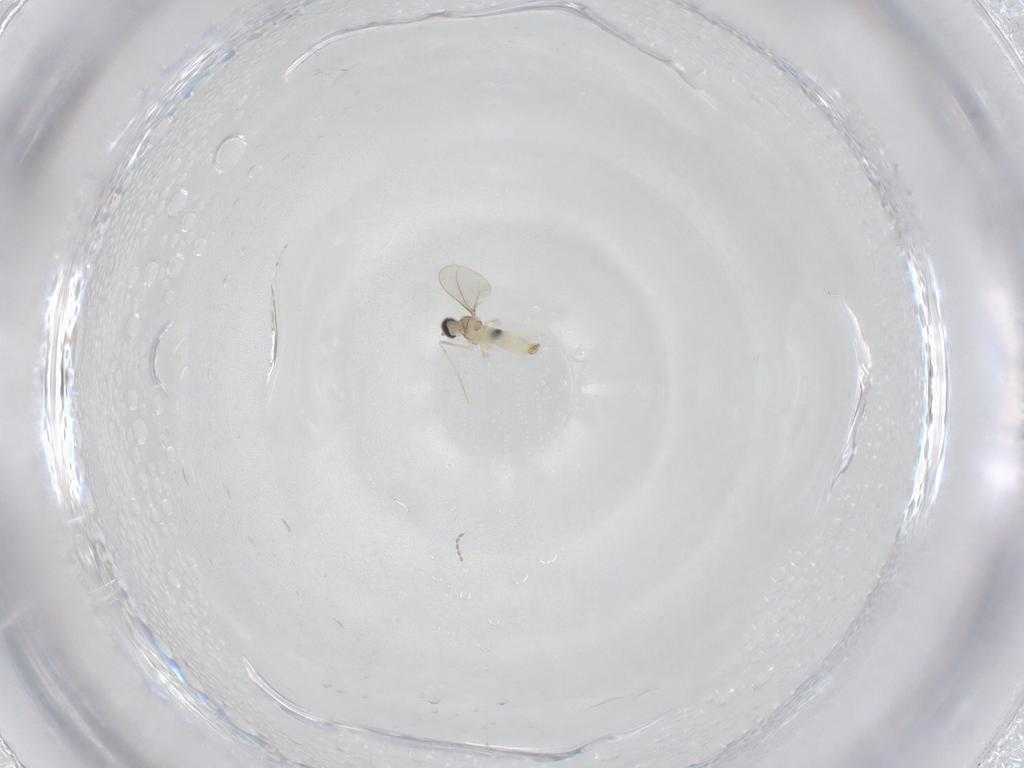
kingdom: Animalia
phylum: Arthropoda
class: Insecta
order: Diptera
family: Cecidomyiidae
